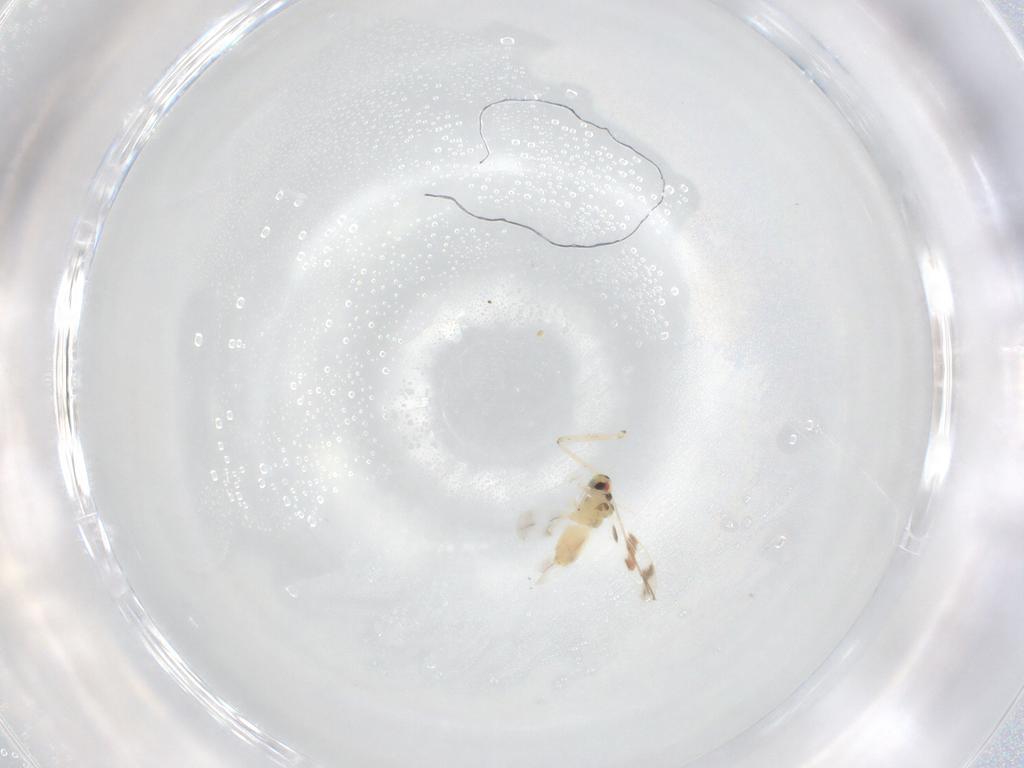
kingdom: Animalia
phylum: Arthropoda
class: Insecta
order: Hemiptera
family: Aleyrodidae
